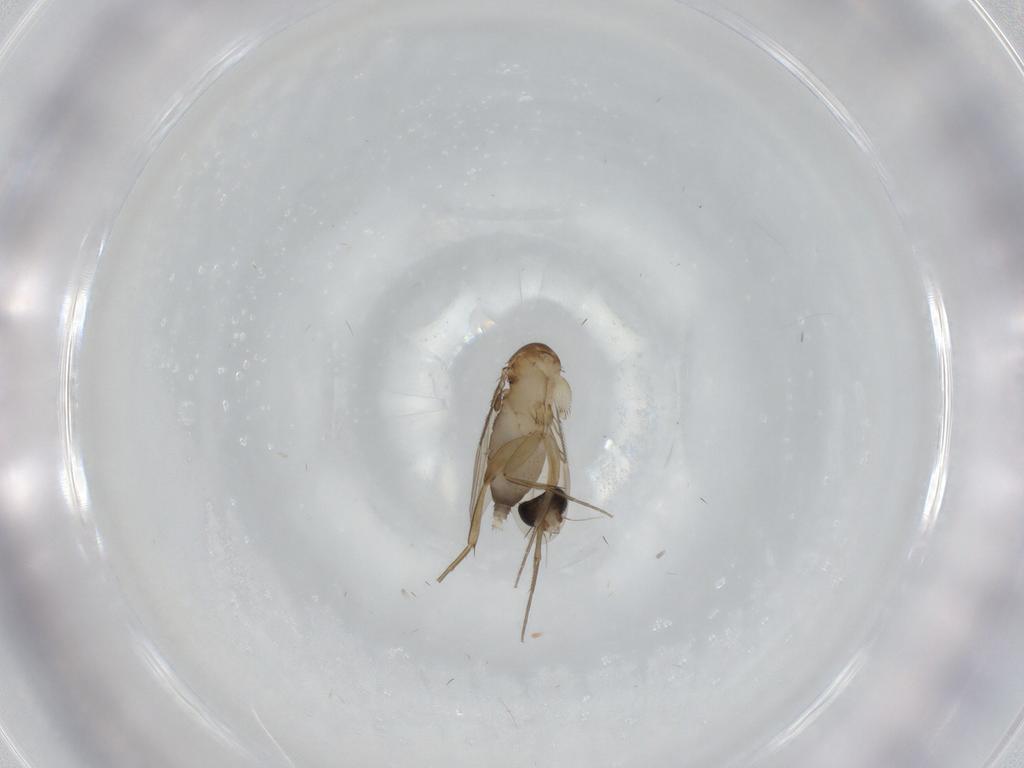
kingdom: Animalia
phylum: Arthropoda
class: Insecta
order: Diptera
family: Phoridae
